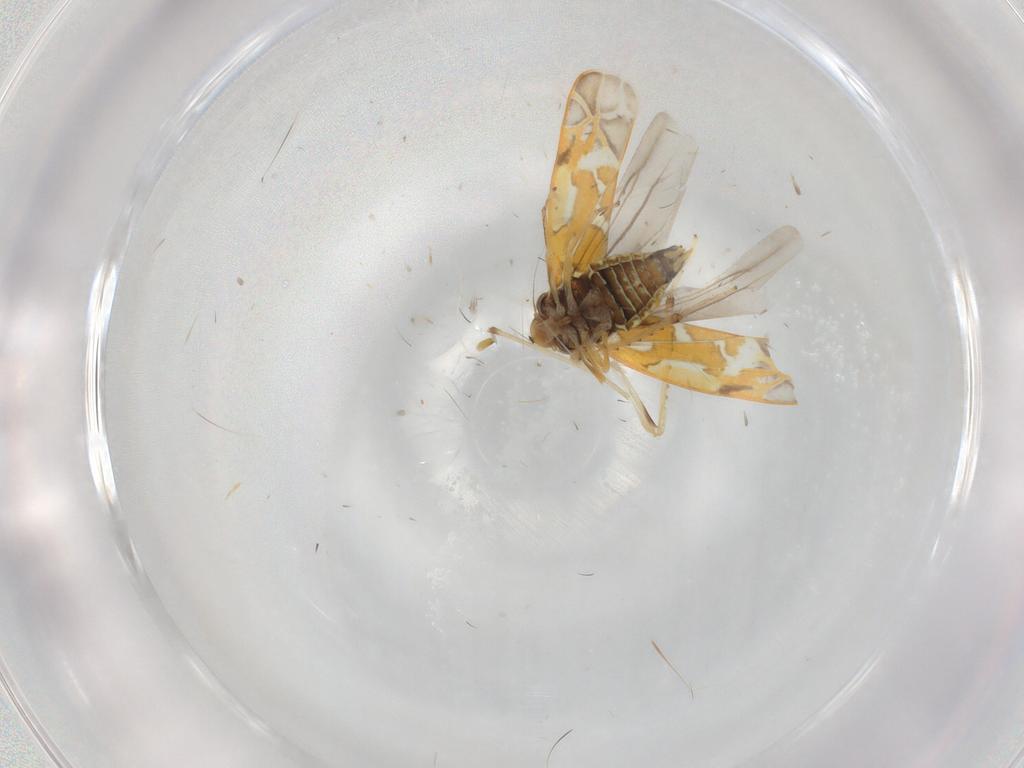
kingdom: Animalia
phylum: Arthropoda
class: Insecta
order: Hemiptera
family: Cicadellidae
